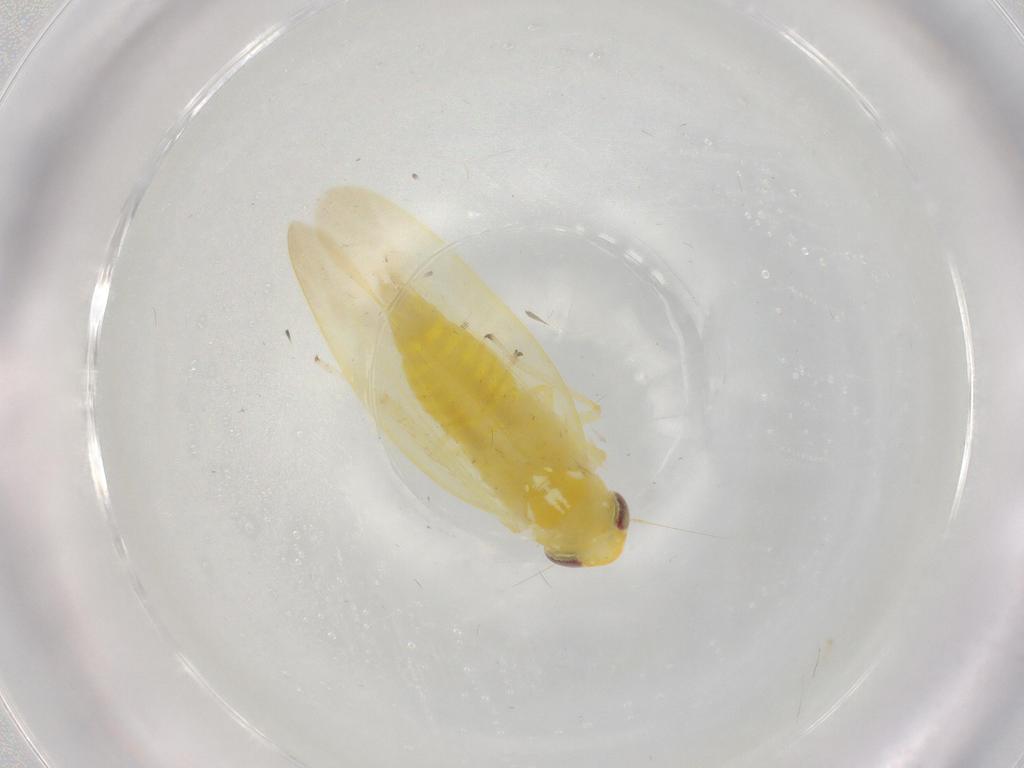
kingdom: Animalia
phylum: Arthropoda
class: Insecta
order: Hemiptera
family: Cicadellidae
